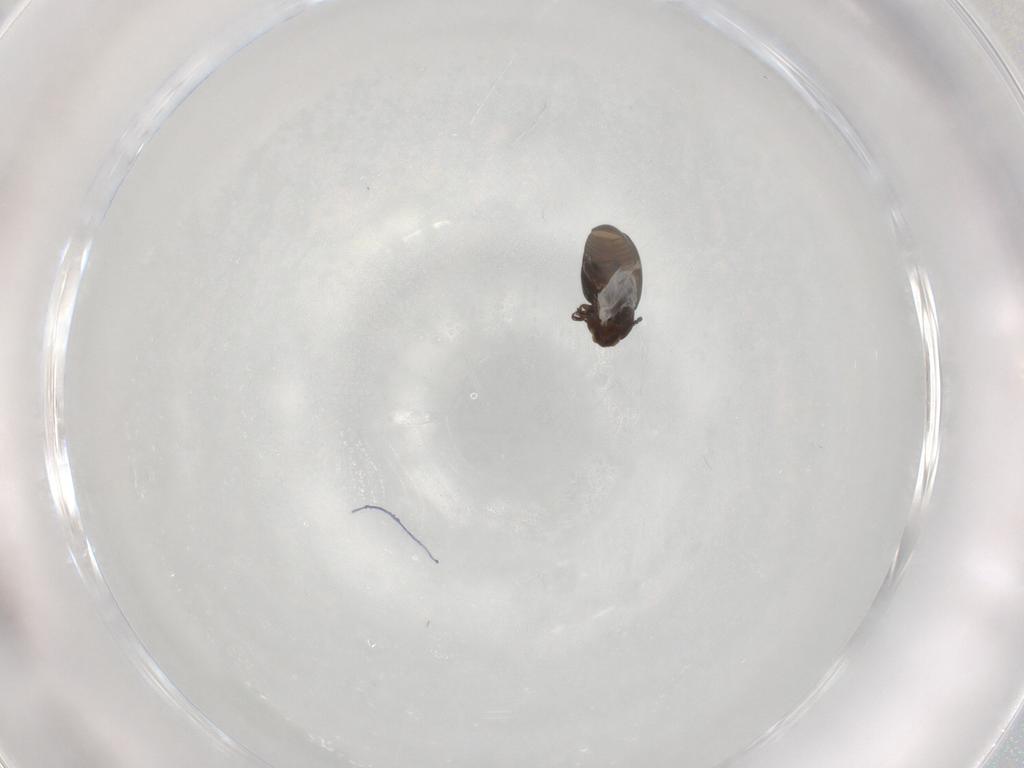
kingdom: Animalia
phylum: Arthropoda
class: Insecta
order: Coleoptera
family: Corylophidae
